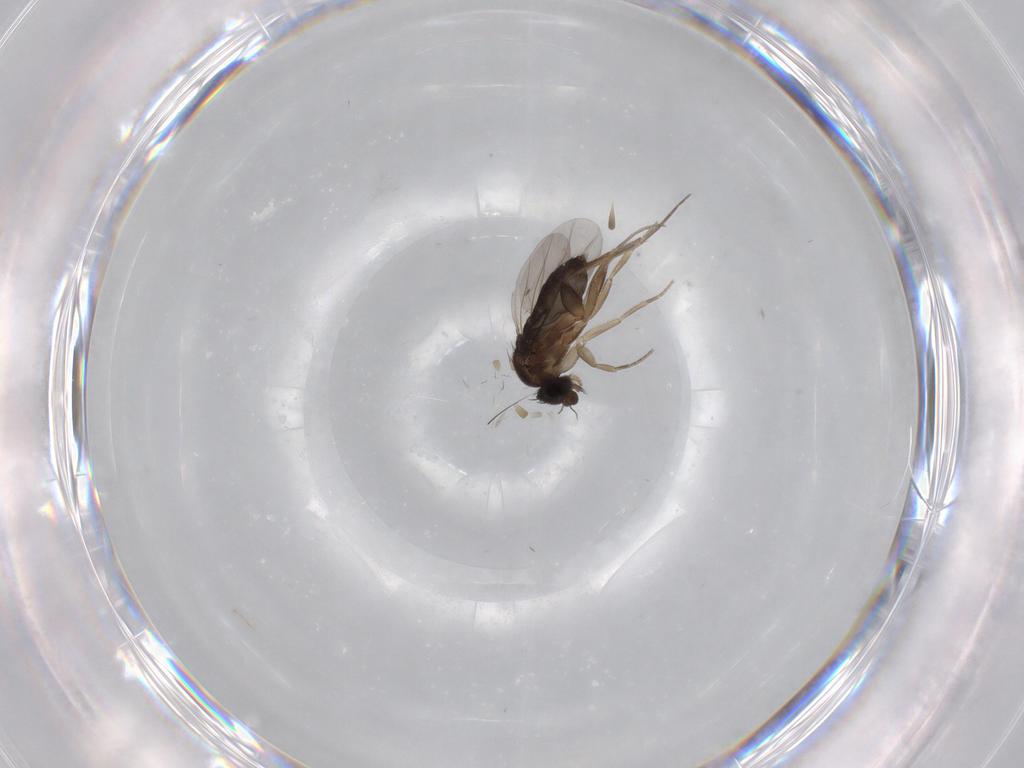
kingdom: Animalia
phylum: Arthropoda
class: Insecta
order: Diptera
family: Phoridae
